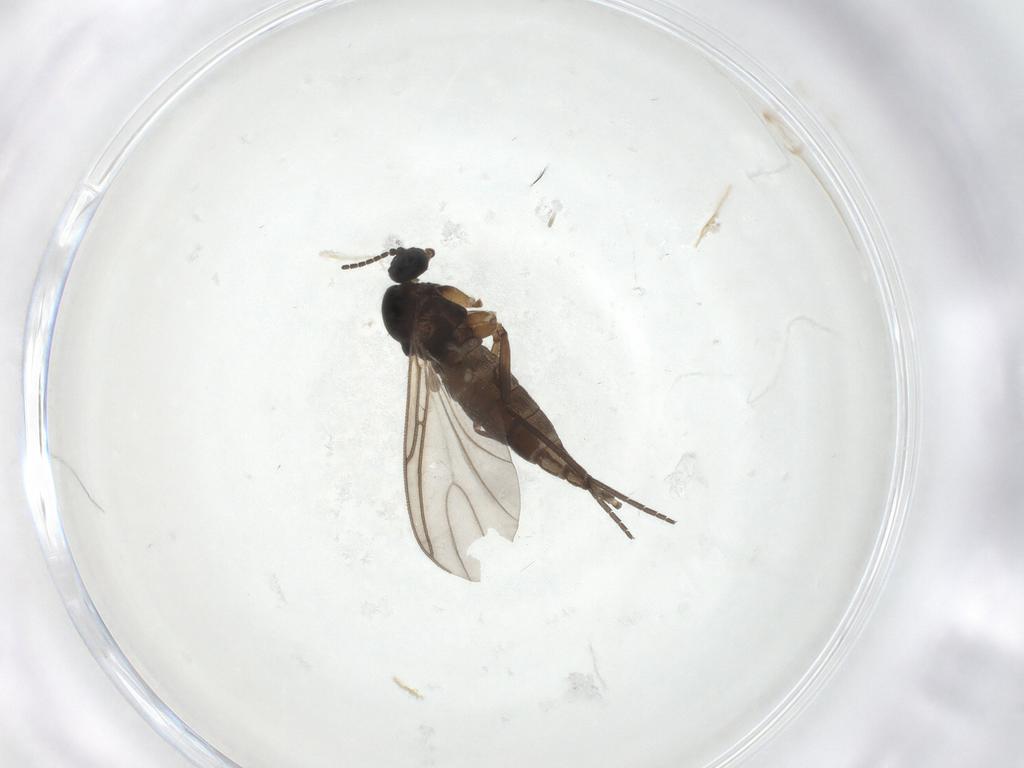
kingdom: Animalia
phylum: Arthropoda
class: Insecta
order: Diptera
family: Sciaridae
